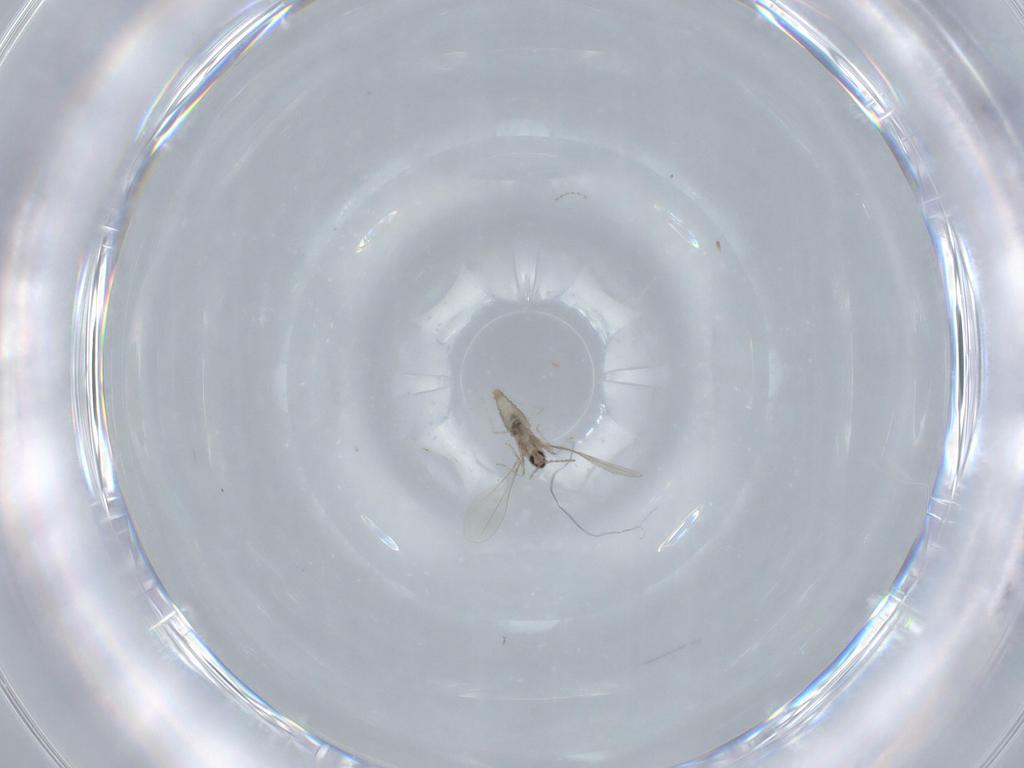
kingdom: Animalia
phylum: Arthropoda
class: Insecta
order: Diptera
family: Cecidomyiidae
